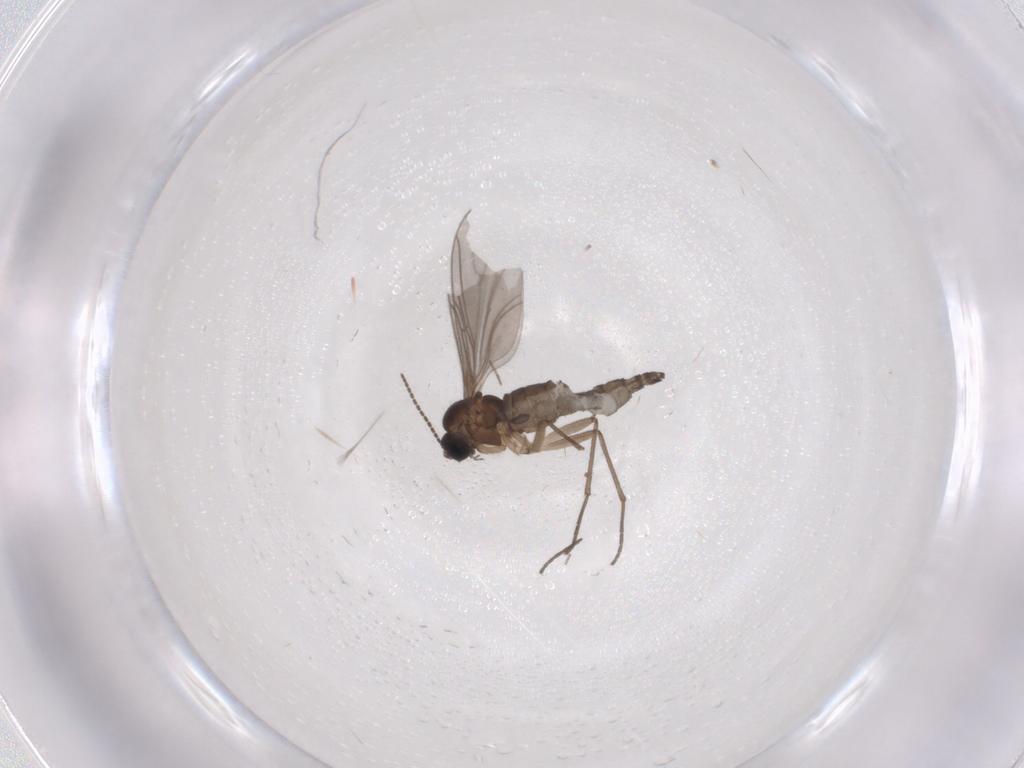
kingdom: Animalia
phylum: Arthropoda
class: Insecta
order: Diptera
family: Sciaridae
